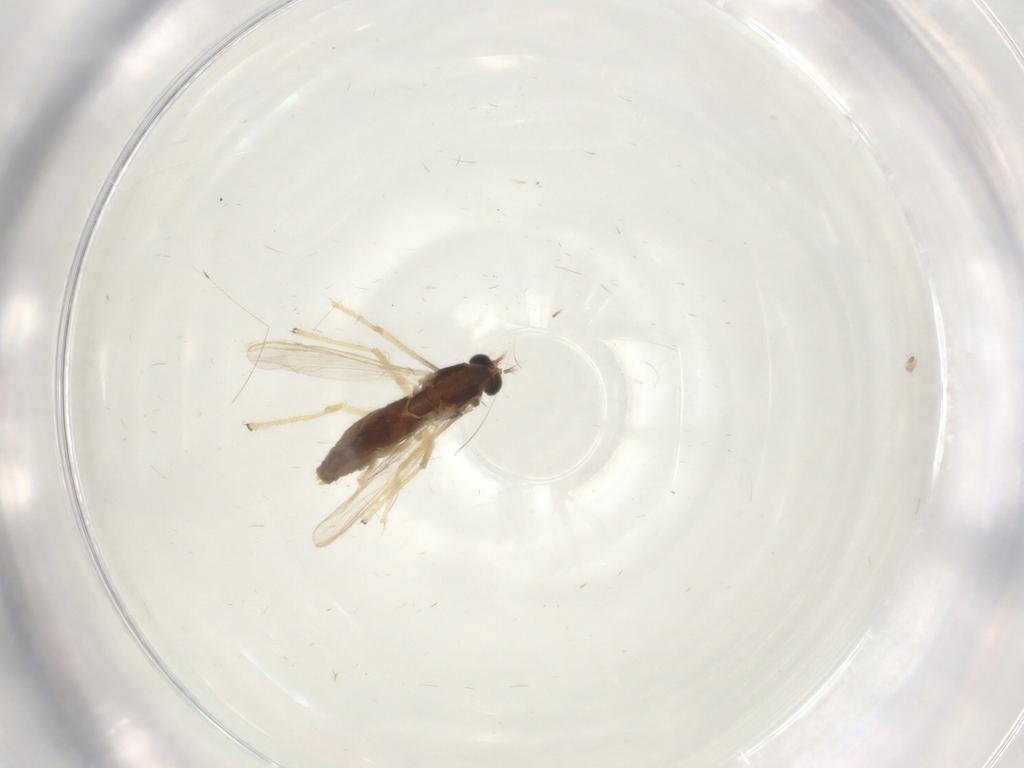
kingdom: Animalia
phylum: Arthropoda
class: Insecta
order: Diptera
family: Chironomidae
